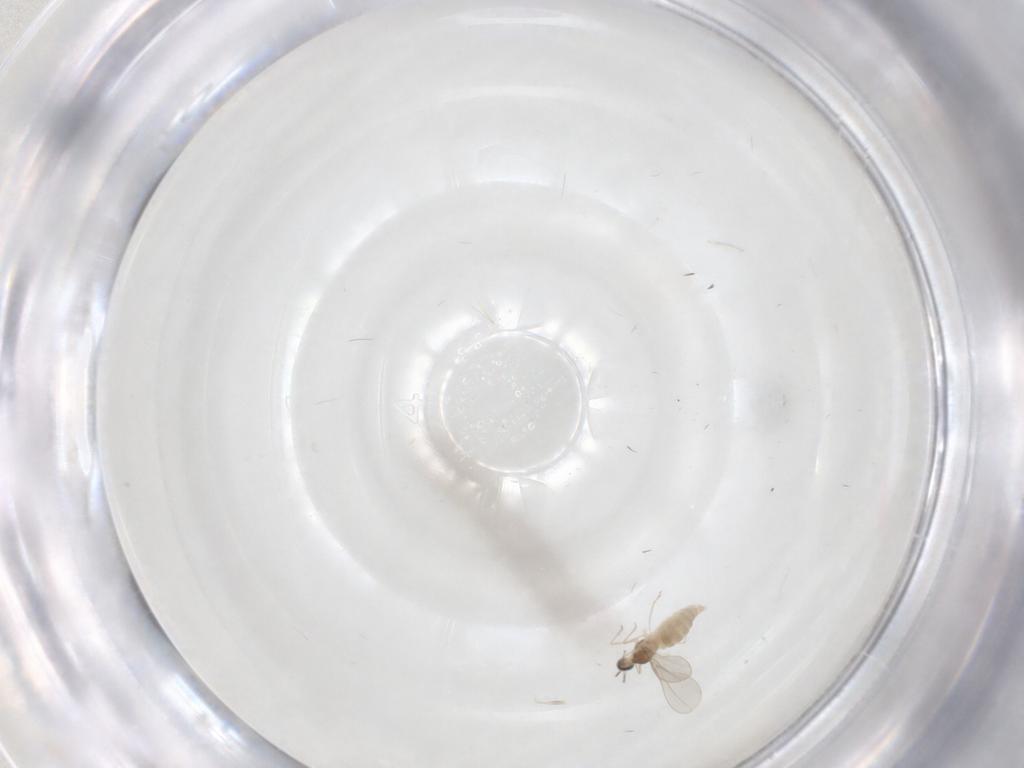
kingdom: Animalia
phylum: Arthropoda
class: Insecta
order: Diptera
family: Cecidomyiidae
